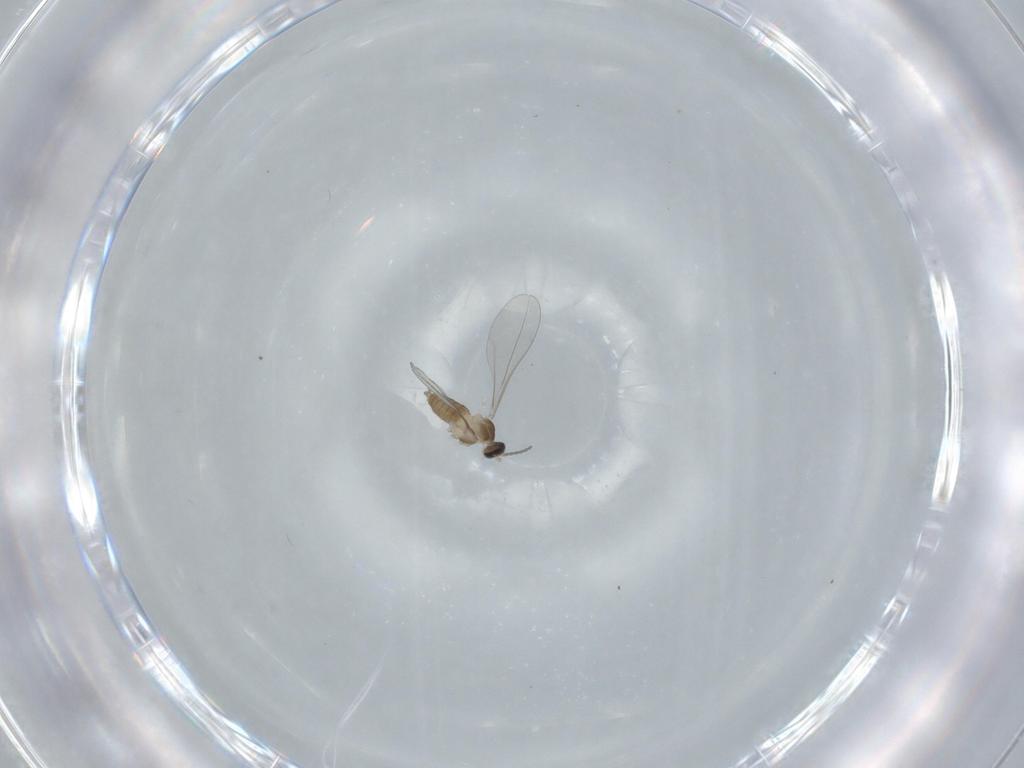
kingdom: Animalia
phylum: Arthropoda
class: Insecta
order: Diptera
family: Cecidomyiidae
